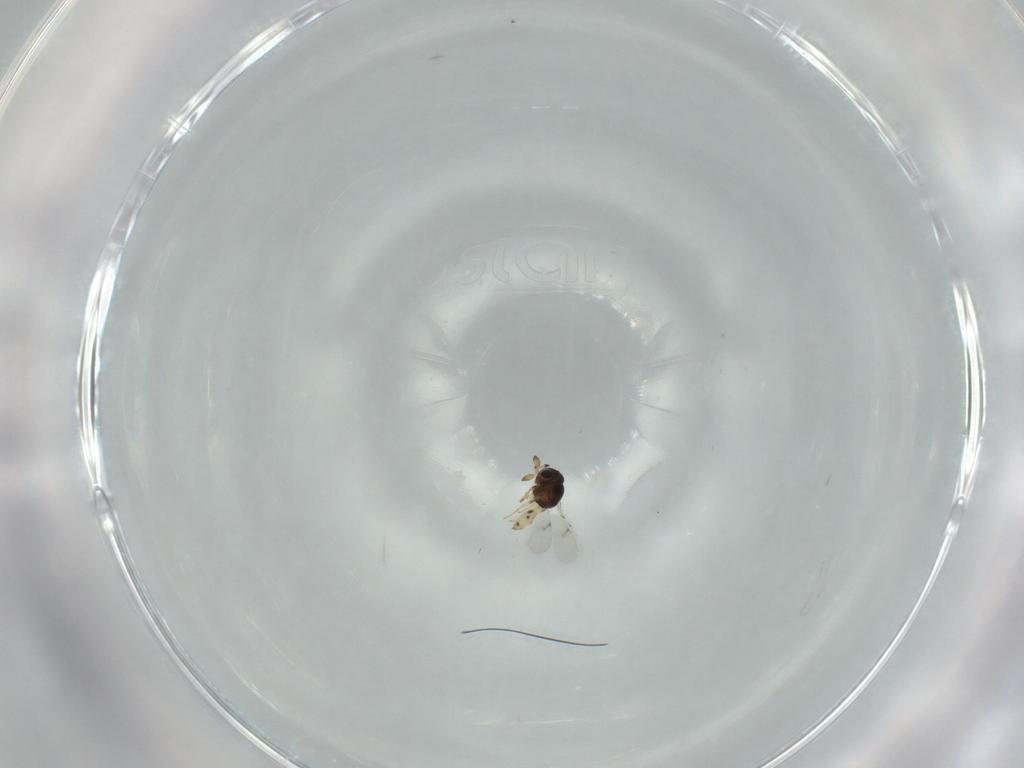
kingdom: Animalia
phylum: Arthropoda
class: Insecta
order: Hymenoptera
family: Scelionidae
